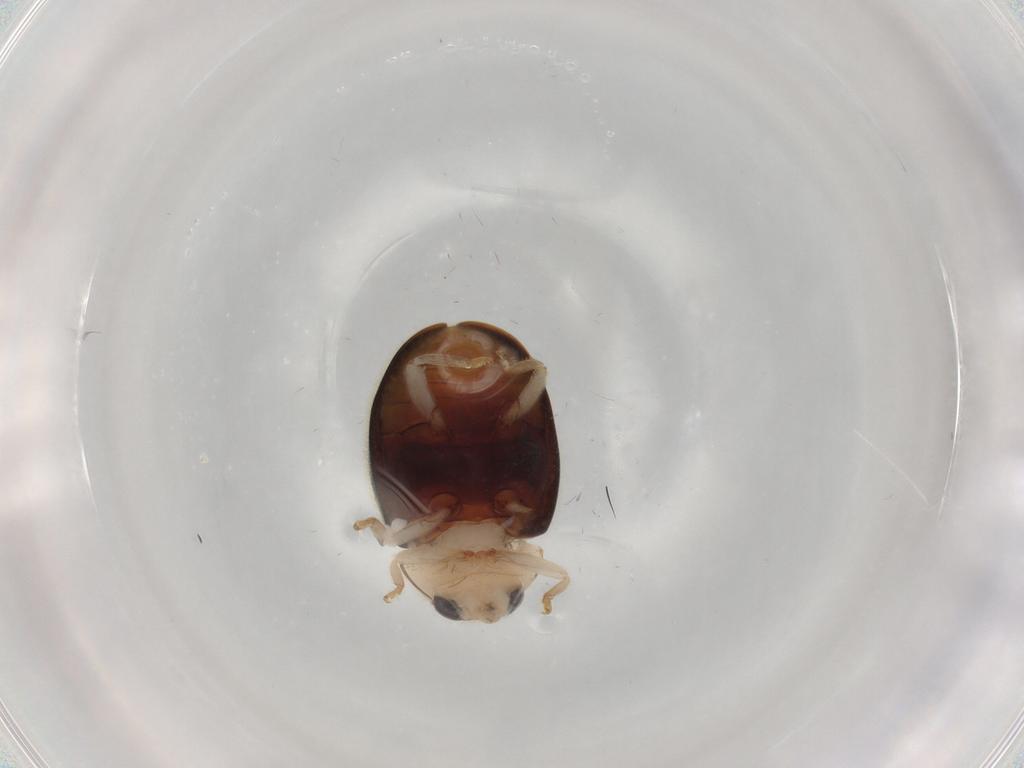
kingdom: Animalia
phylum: Arthropoda
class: Insecta
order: Coleoptera
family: Coccinellidae
